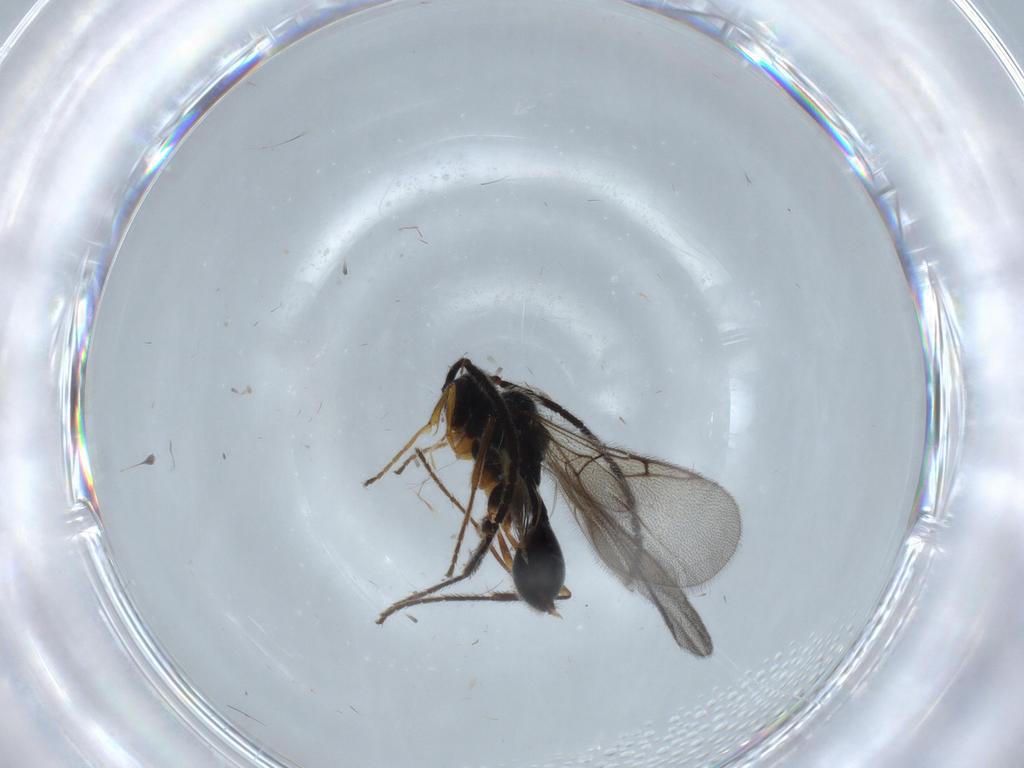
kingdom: Animalia
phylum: Arthropoda
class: Insecta
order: Hymenoptera
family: Diapriidae
